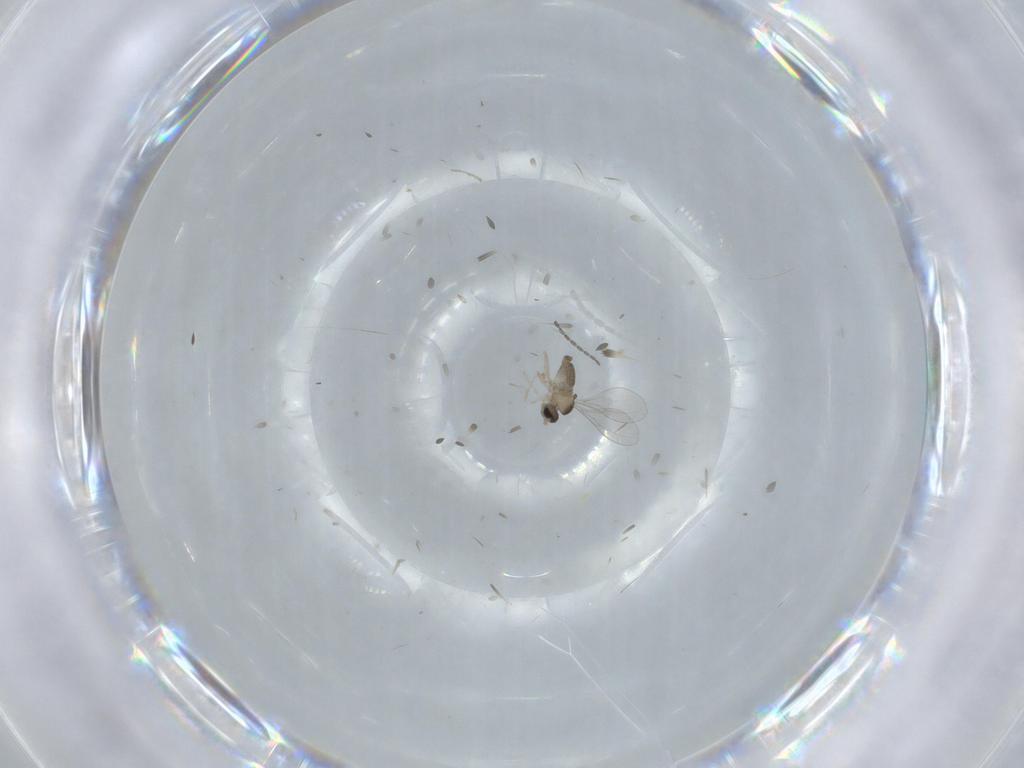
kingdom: Animalia
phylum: Arthropoda
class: Insecta
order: Diptera
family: Cecidomyiidae
